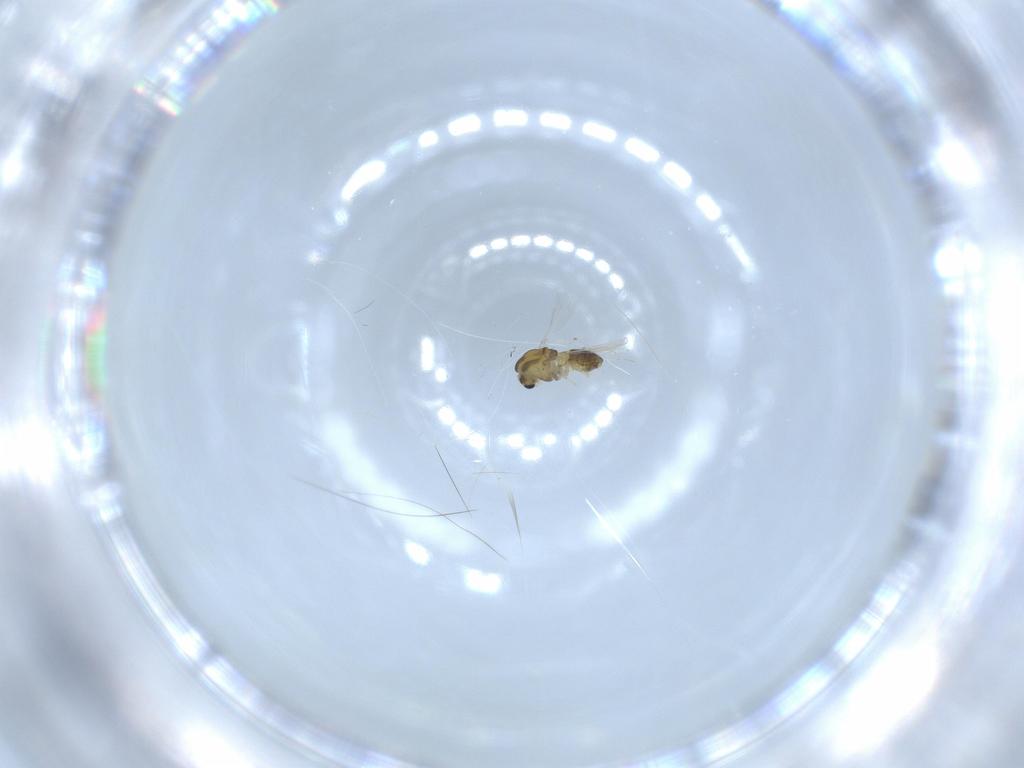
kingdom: Animalia
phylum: Arthropoda
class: Insecta
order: Diptera
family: Chironomidae
